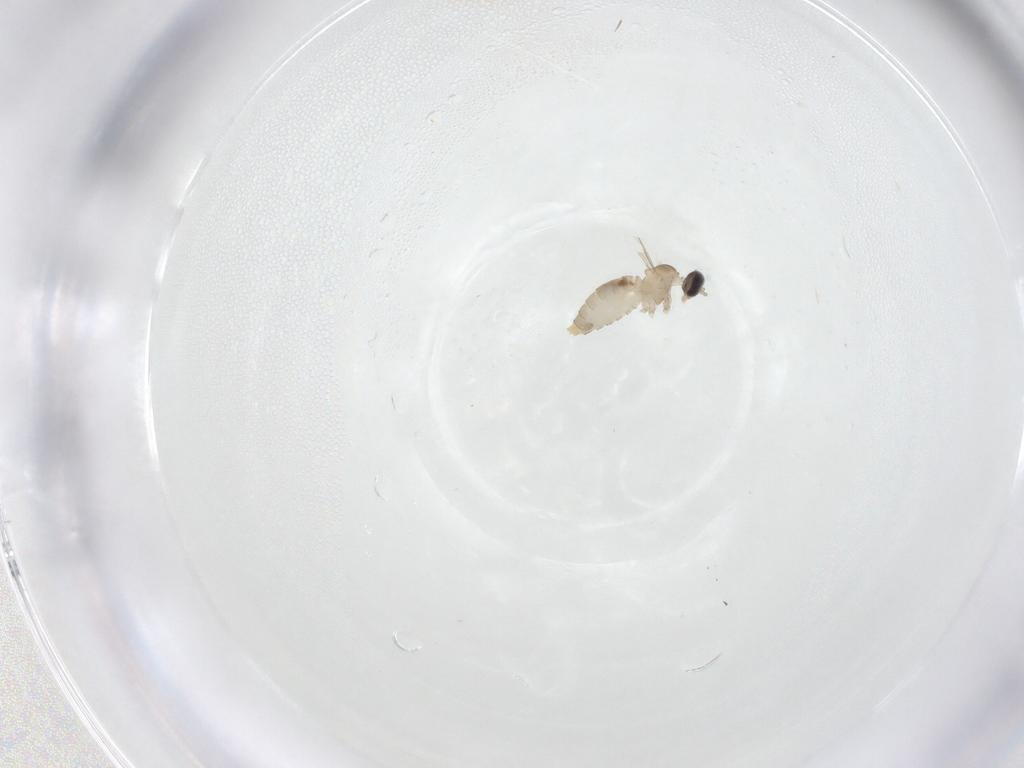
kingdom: Animalia
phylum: Arthropoda
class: Insecta
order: Diptera
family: Cecidomyiidae
